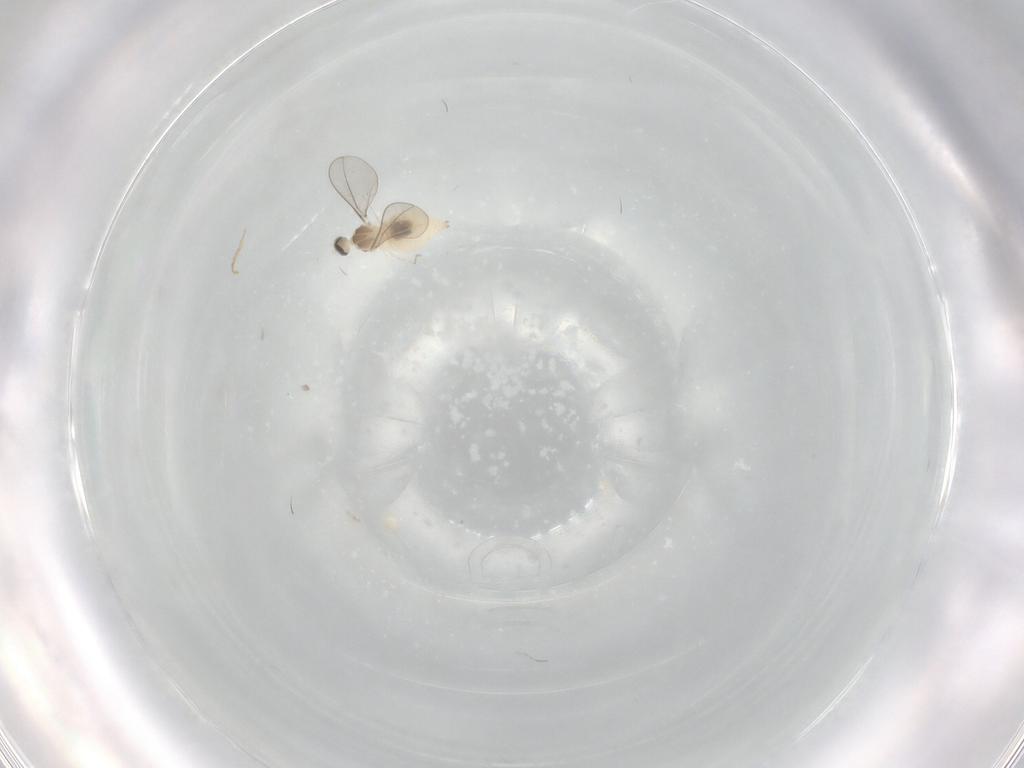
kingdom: Animalia
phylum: Arthropoda
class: Insecta
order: Diptera
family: Cecidomyiidae
